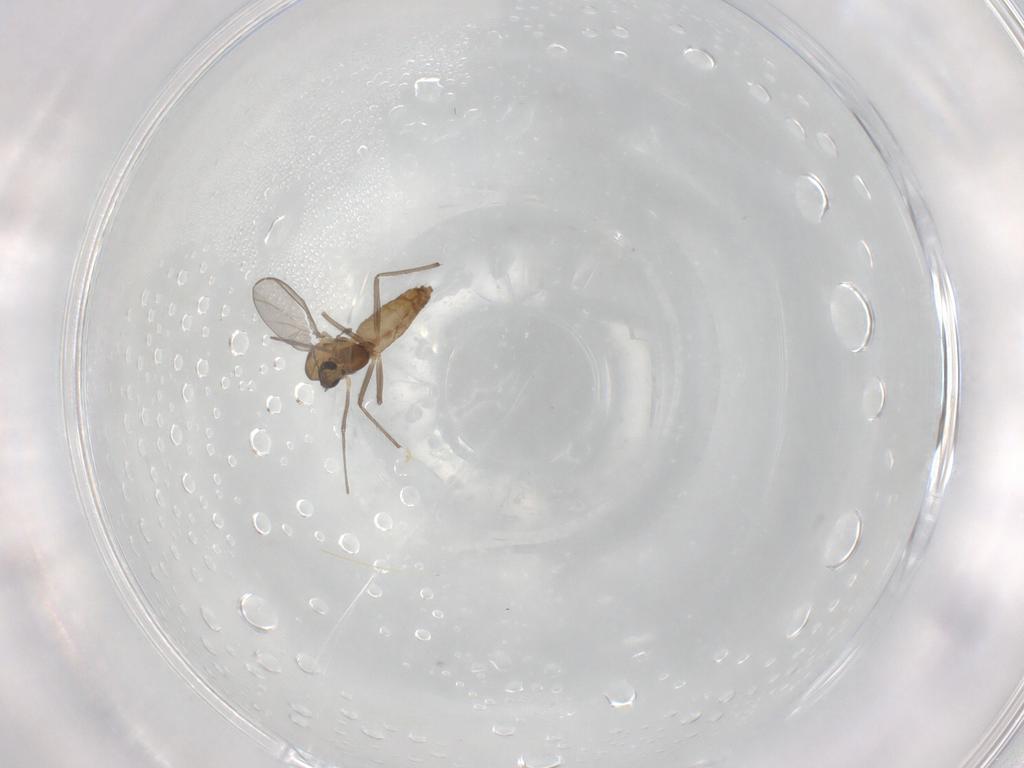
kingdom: Animalia
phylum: Arthropoda
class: Insecta
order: Diptera
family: Chironomidae
